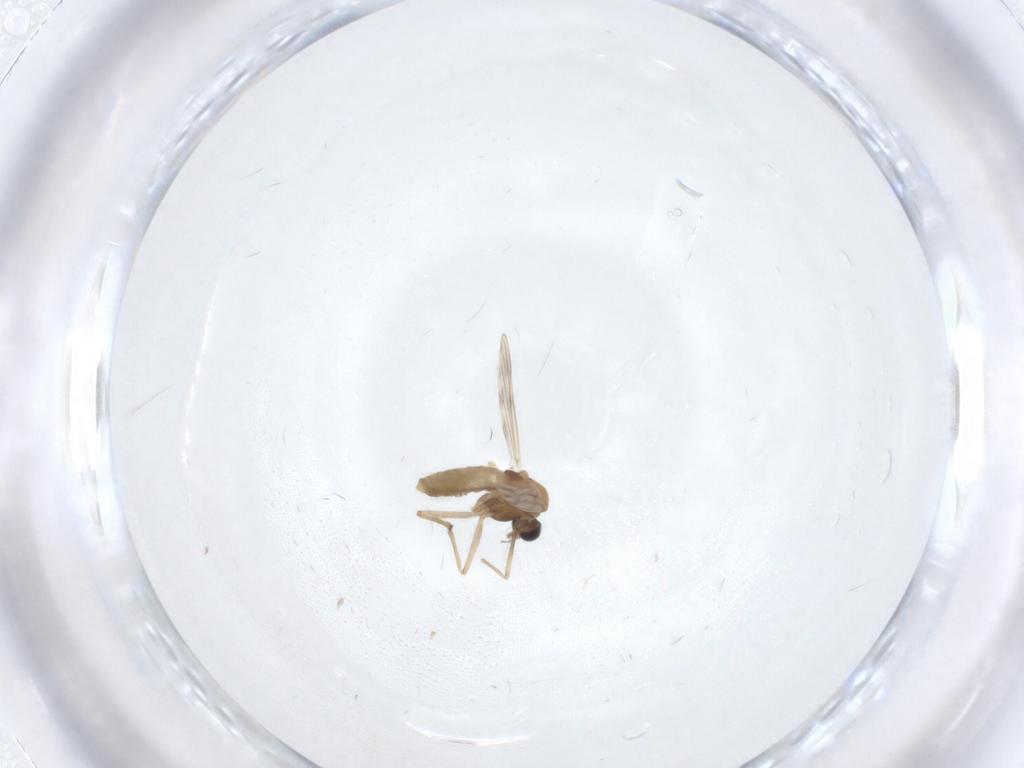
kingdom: Animalia
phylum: Arthropoda
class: Insecta
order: Diptera
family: Chironomidae
